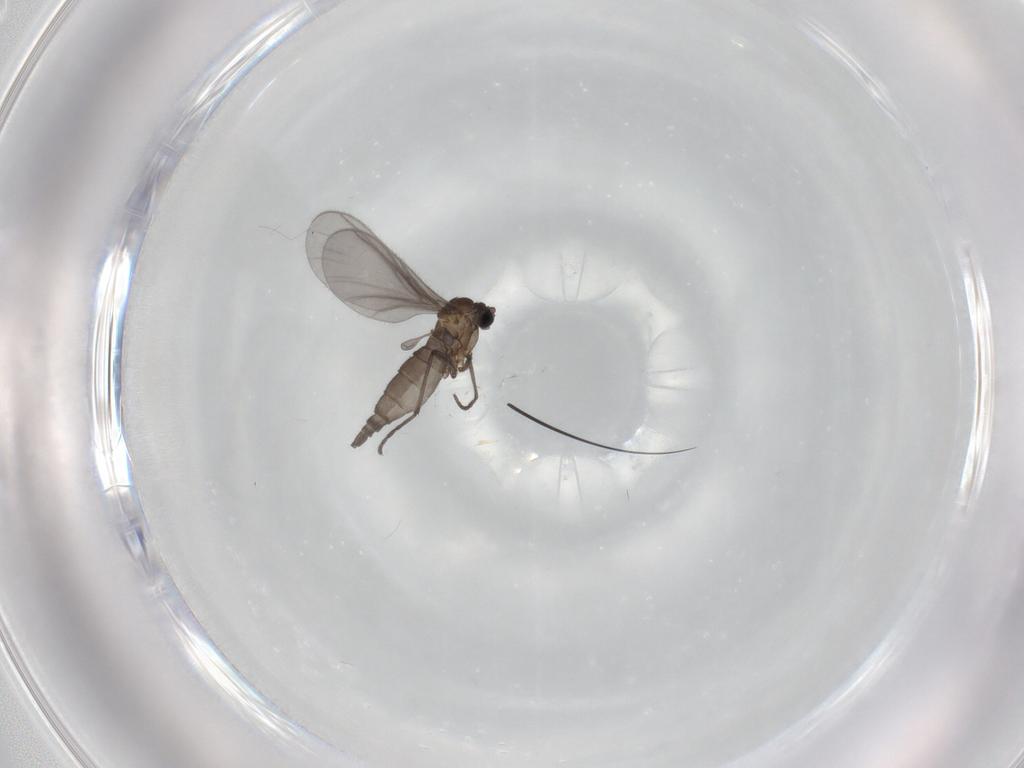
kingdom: Animalia
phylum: Arthropoda
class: Insecta
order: Diptera
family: Sciaridae
